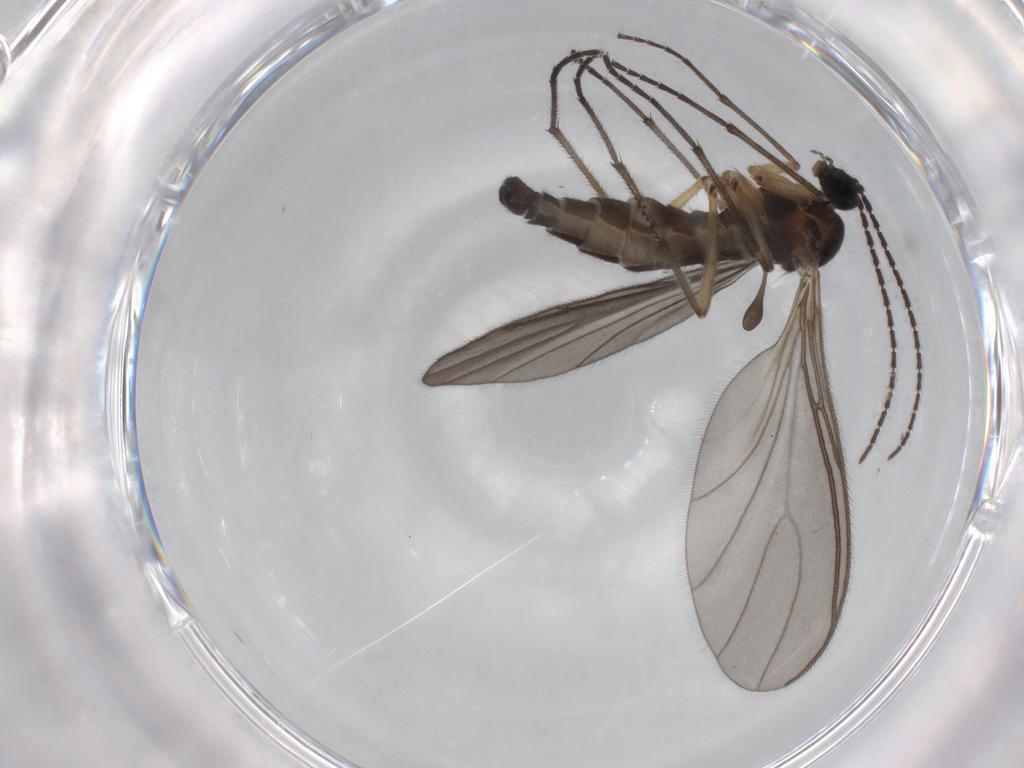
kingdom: Animalia
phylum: Arthropoda
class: Insecta
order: Diptera
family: Sciaridae
